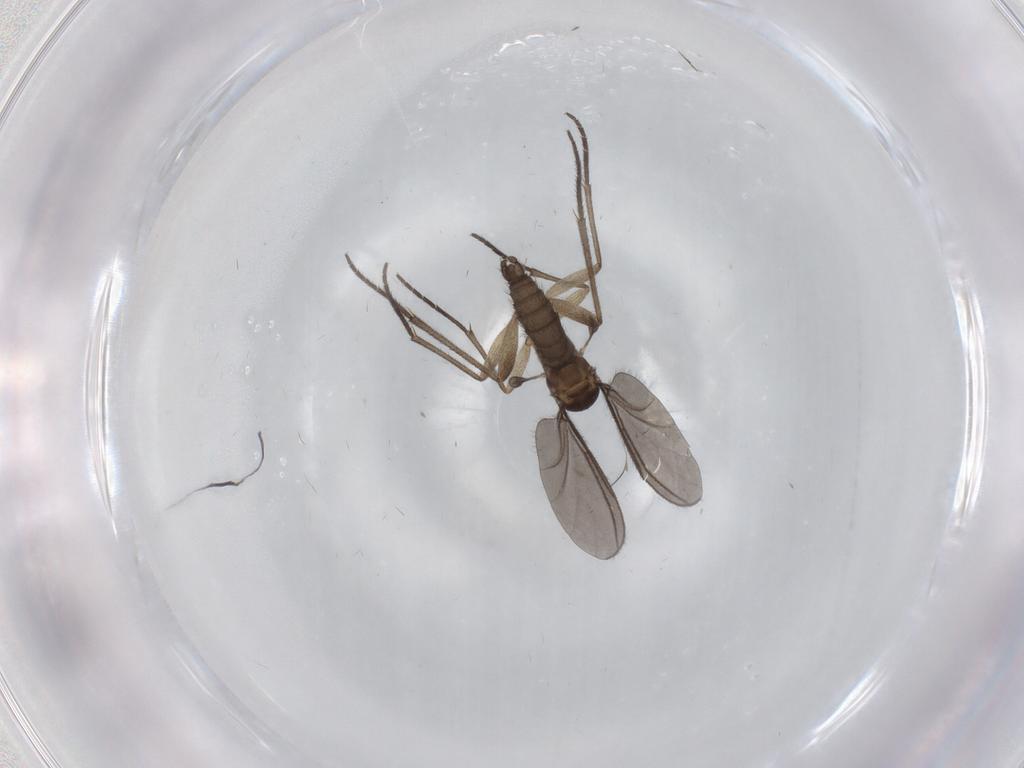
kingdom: Animalia
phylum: Arthropoda
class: Insecta
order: Diptera
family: Sciaridae
